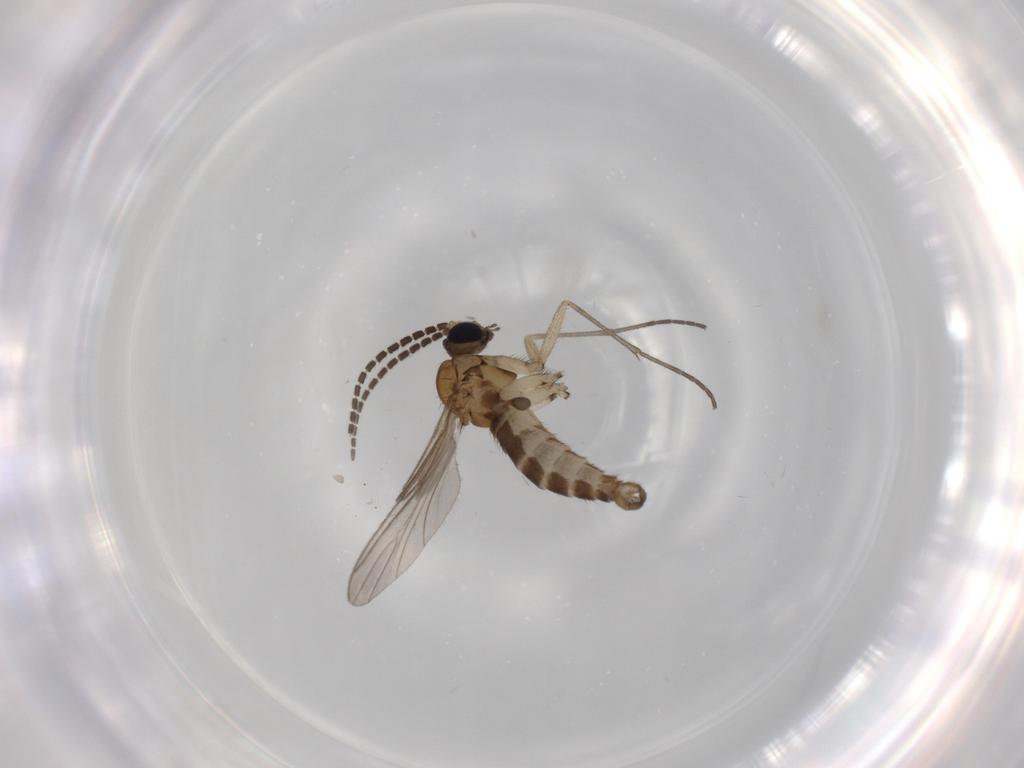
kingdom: Animalia
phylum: Arthropoda
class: Insecta
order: Diptera
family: Sciaridae
